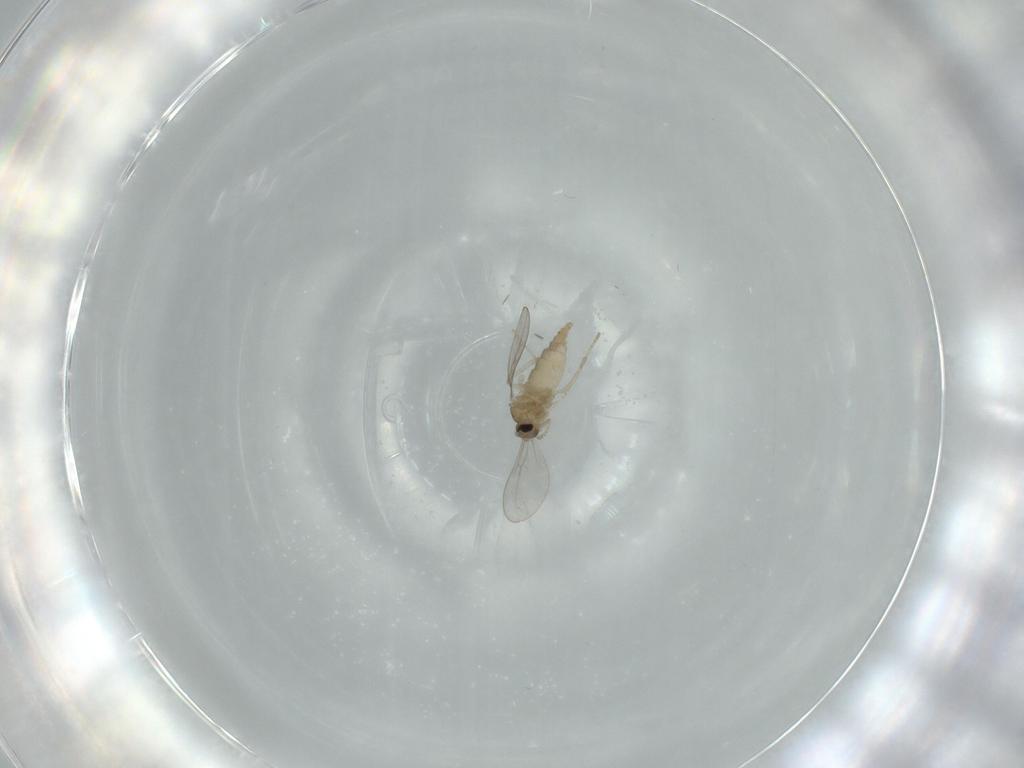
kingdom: Animalia
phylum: Arthropoda
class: Insecta
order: Diptera
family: Cecidomyiidae
